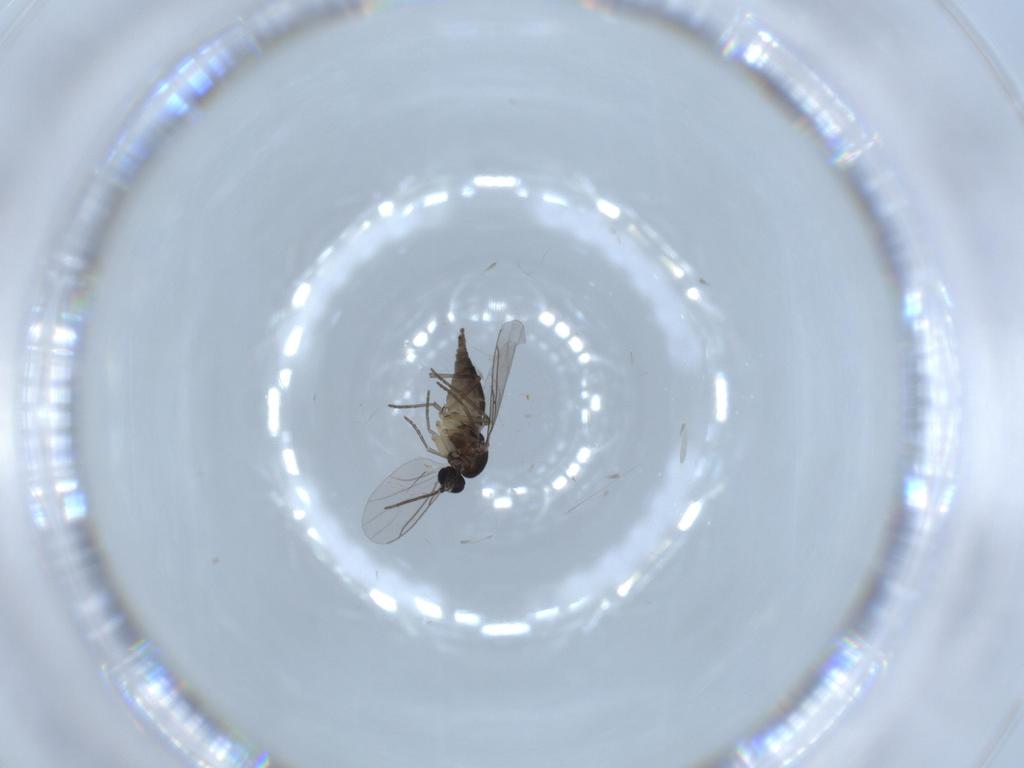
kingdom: Animalia
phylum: Arthropoda
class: Insecta
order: Diptera
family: Sciaridae
